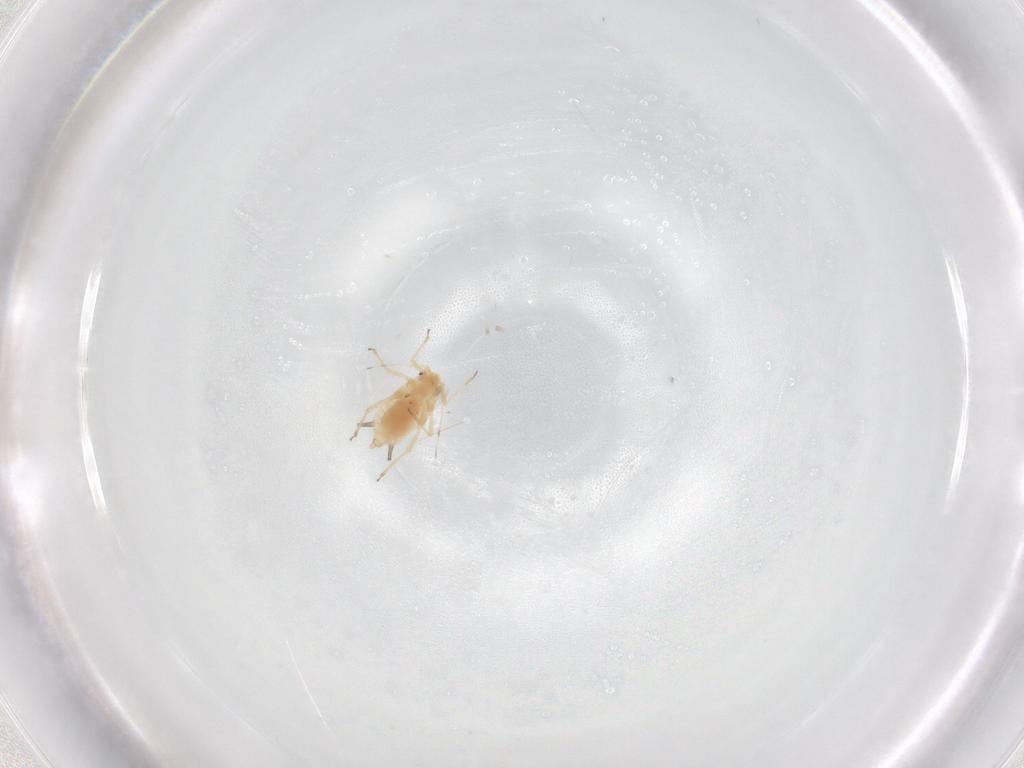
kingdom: Animalia
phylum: Arthropoda
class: Insecta
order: Hemiptera
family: Aphididae
